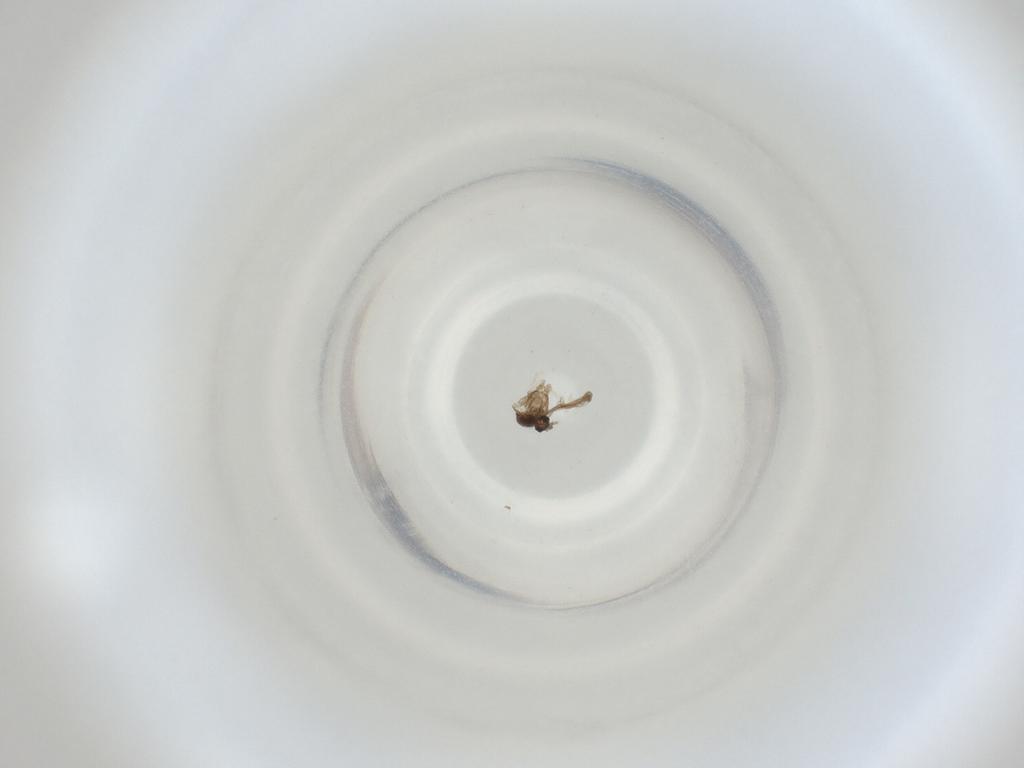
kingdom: Animalia
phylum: Arthropoda
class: Insecta
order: Diptera
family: Cecidomyiidae
